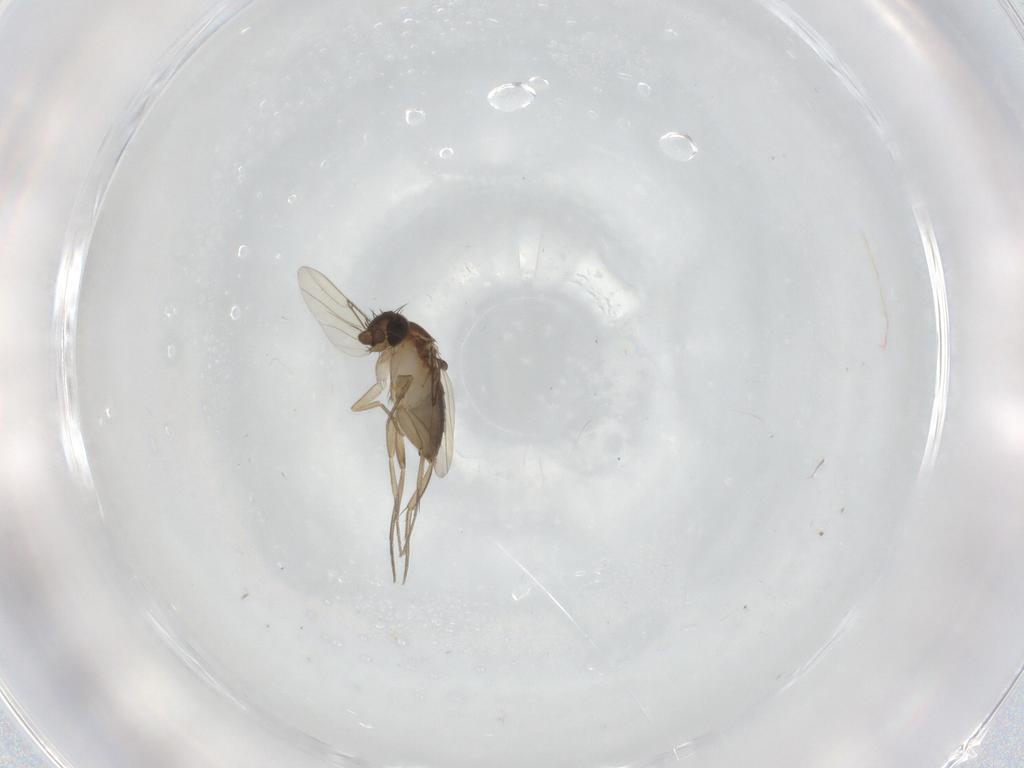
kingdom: Animalia
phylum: Arthropoda
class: Insecta
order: Diptera
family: Phoridae
